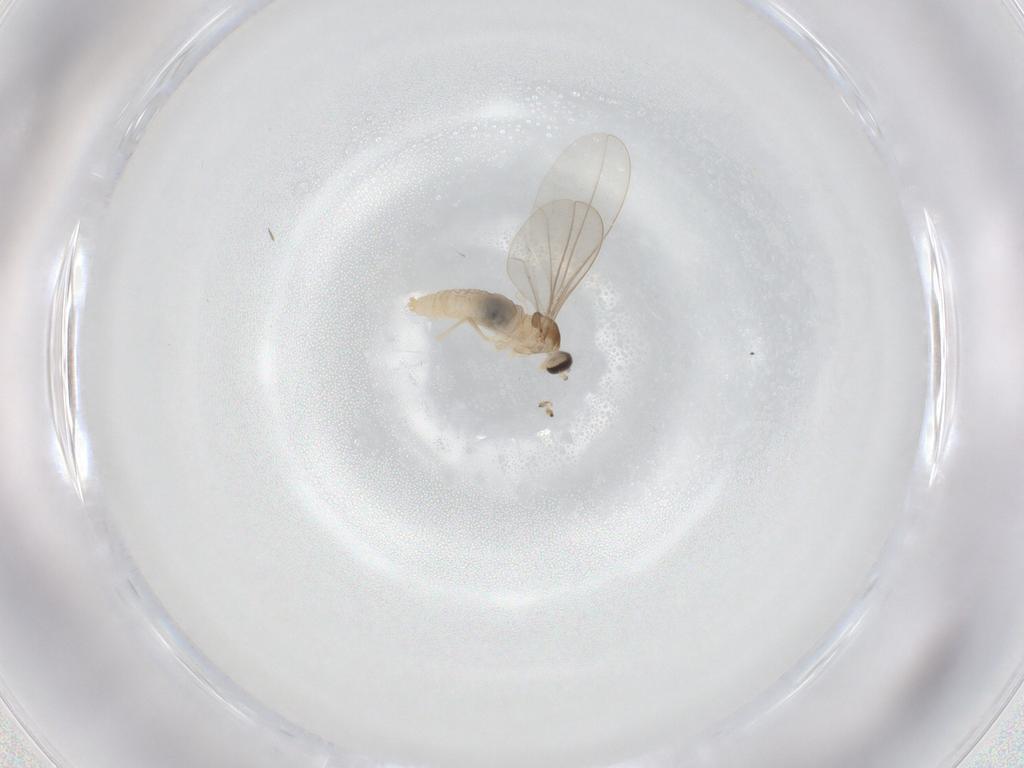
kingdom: Animalia
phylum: Arthropoda
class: Insecta
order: Diptera
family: Cecidomyiidae
